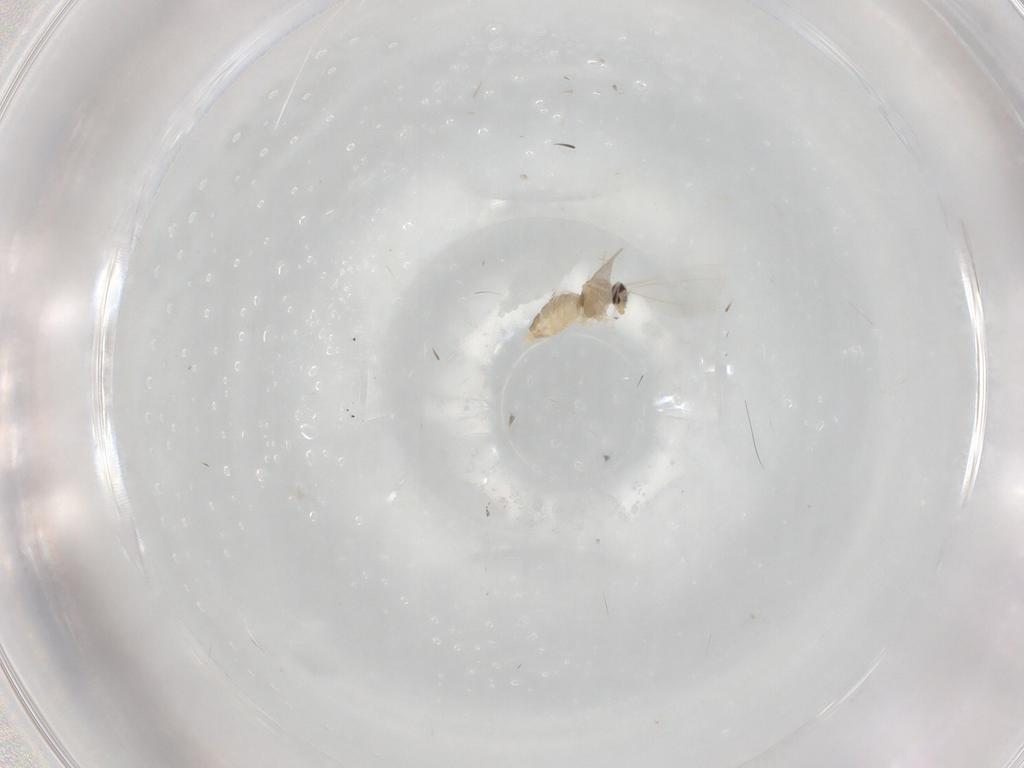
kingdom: Animalia
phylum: Arthropoda
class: Insecta
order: Diptera
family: Cecidomyiidae
